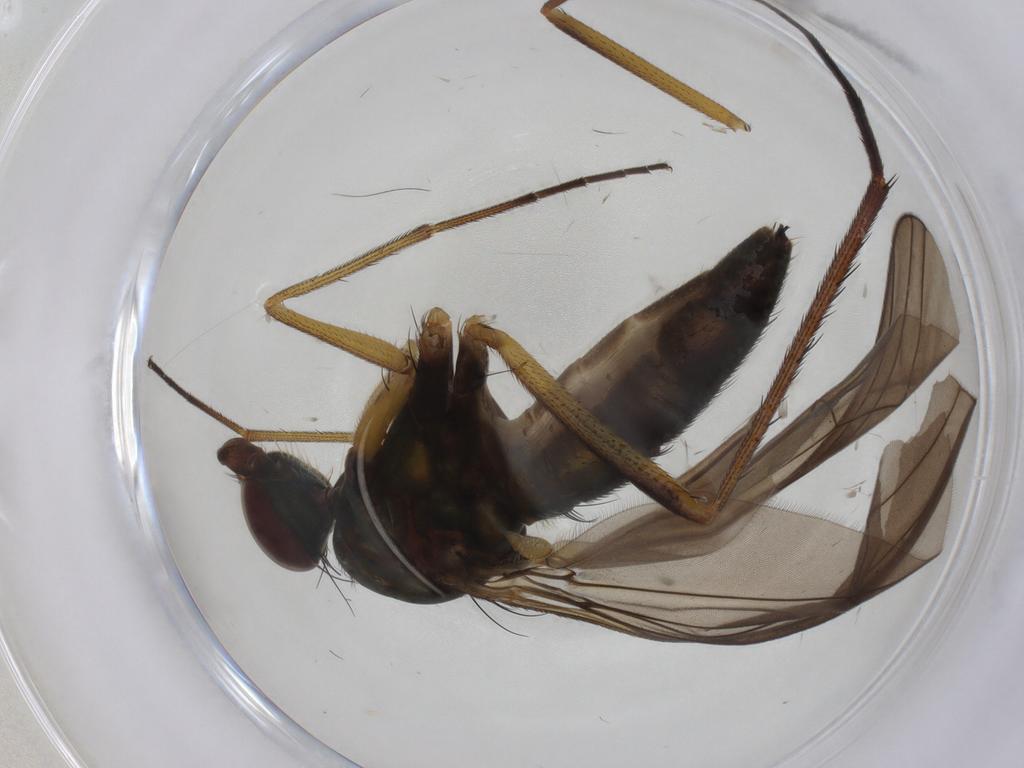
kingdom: Animalia
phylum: Arthropoda
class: Insecta
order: Diptera
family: Dolichopodidae
